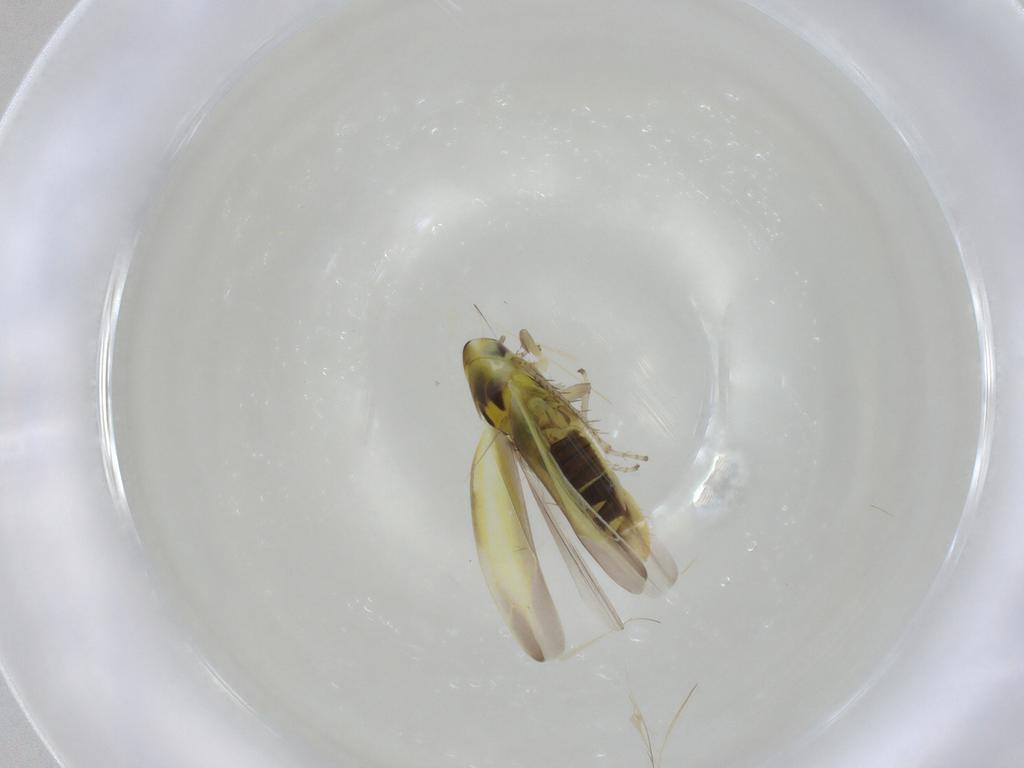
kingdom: Animalia
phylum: Arthropoda
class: Insecta
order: Hemiptera
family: Cicadellidae
